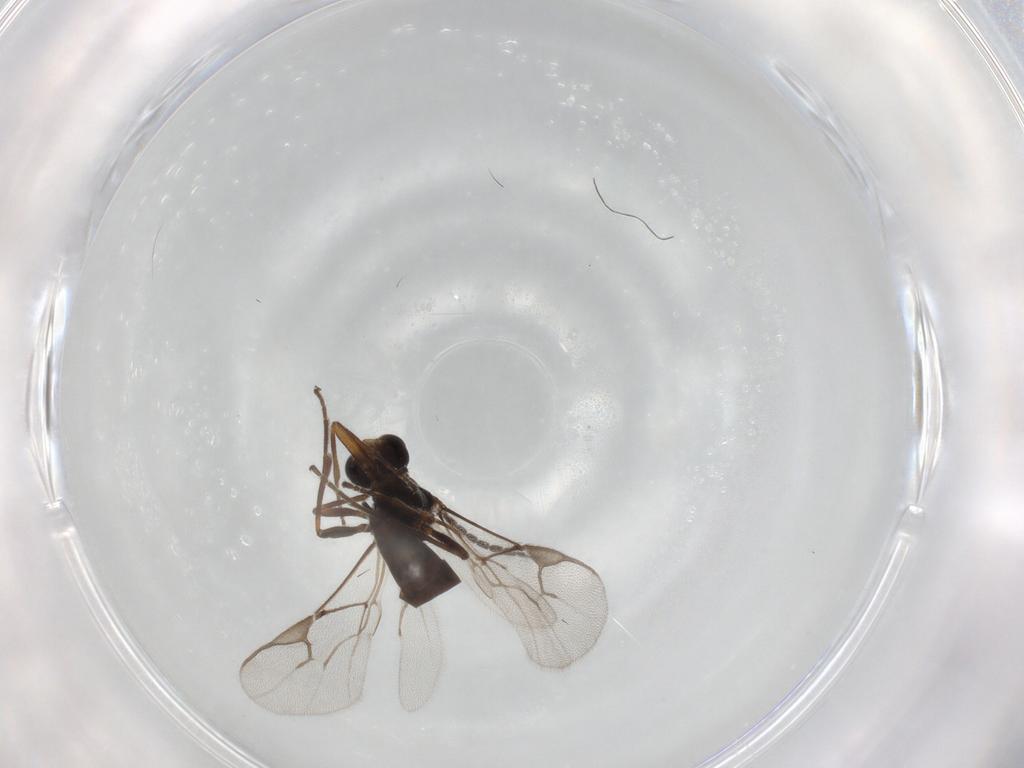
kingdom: Animalia
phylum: Arthropoda
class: Insecta
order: Hymenoptera
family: Braconidae
